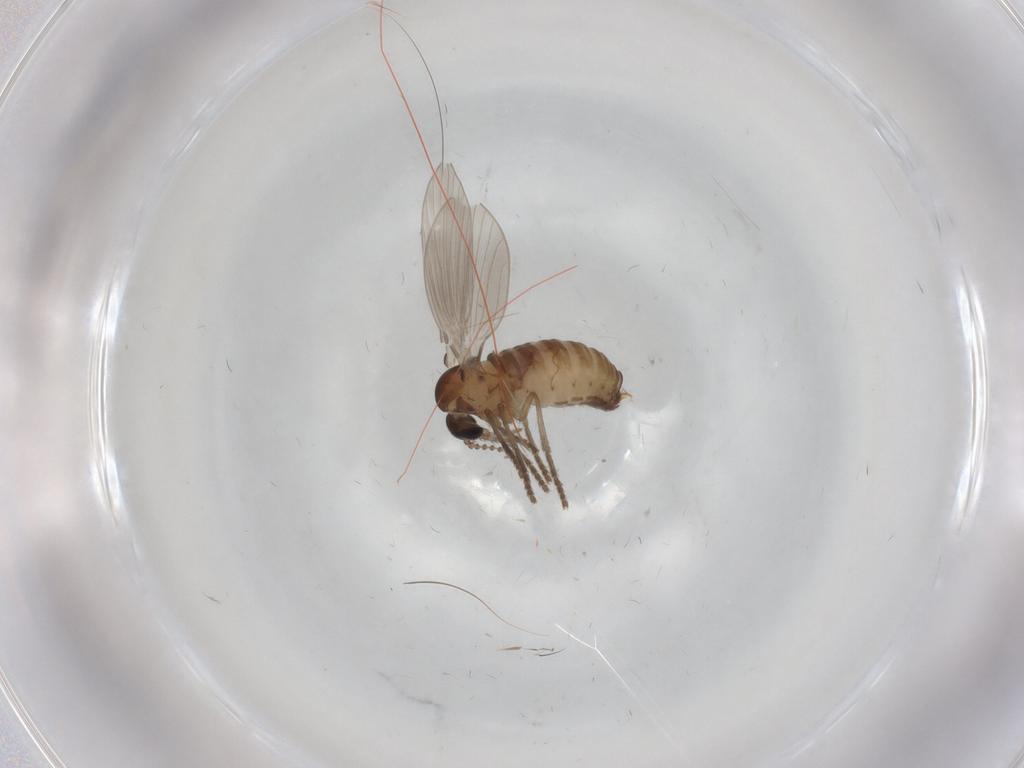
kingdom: Animalia
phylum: Arthropoda
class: Insecta
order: Diptera
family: Psychodidae
